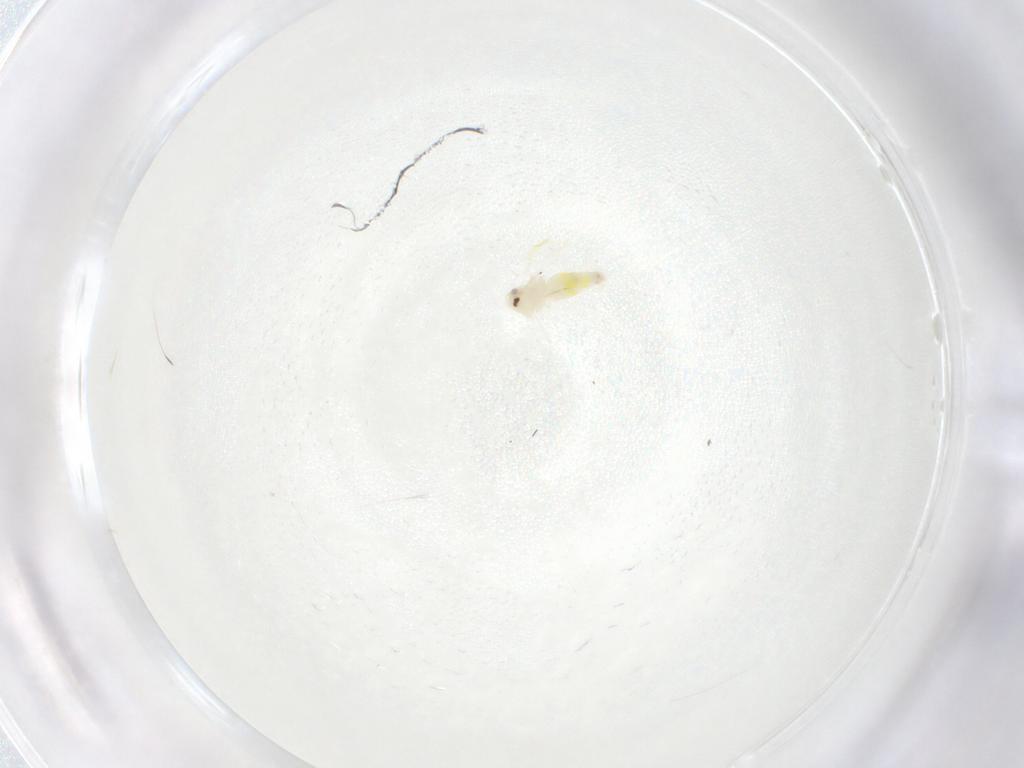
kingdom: Animalia
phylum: Arthropoda
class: Insecta
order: Hemiptera
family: Aleyrodidae
